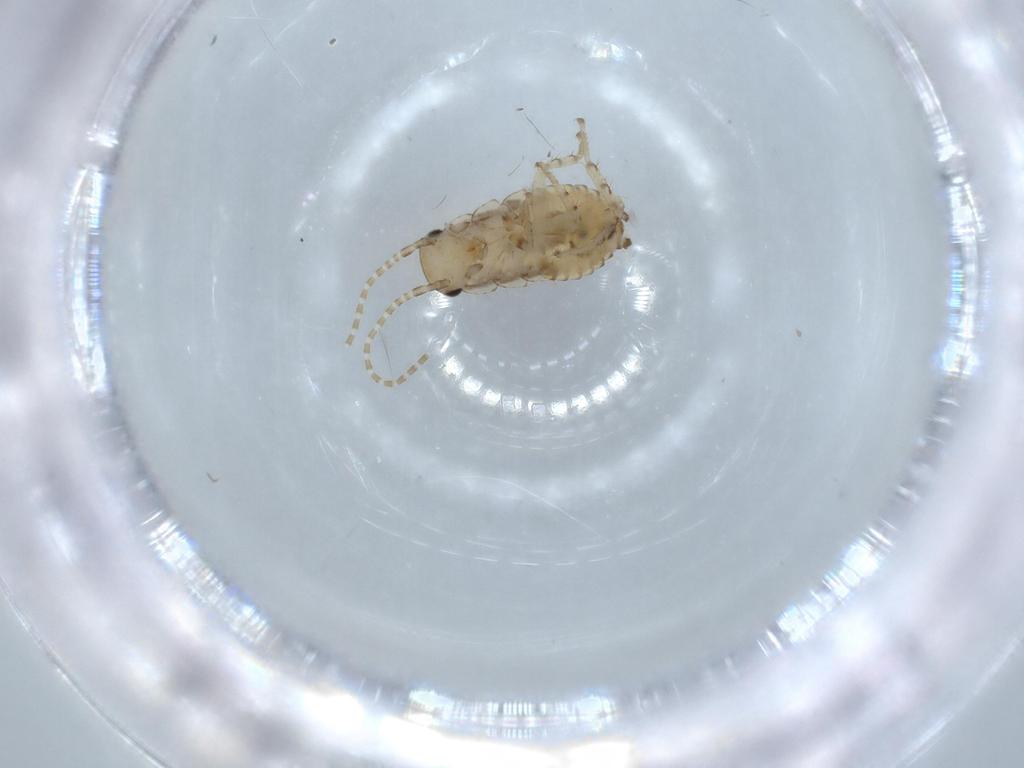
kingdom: Animalia
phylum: Arthropoda
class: Insecta
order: Blattodea
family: Ectobiidae
